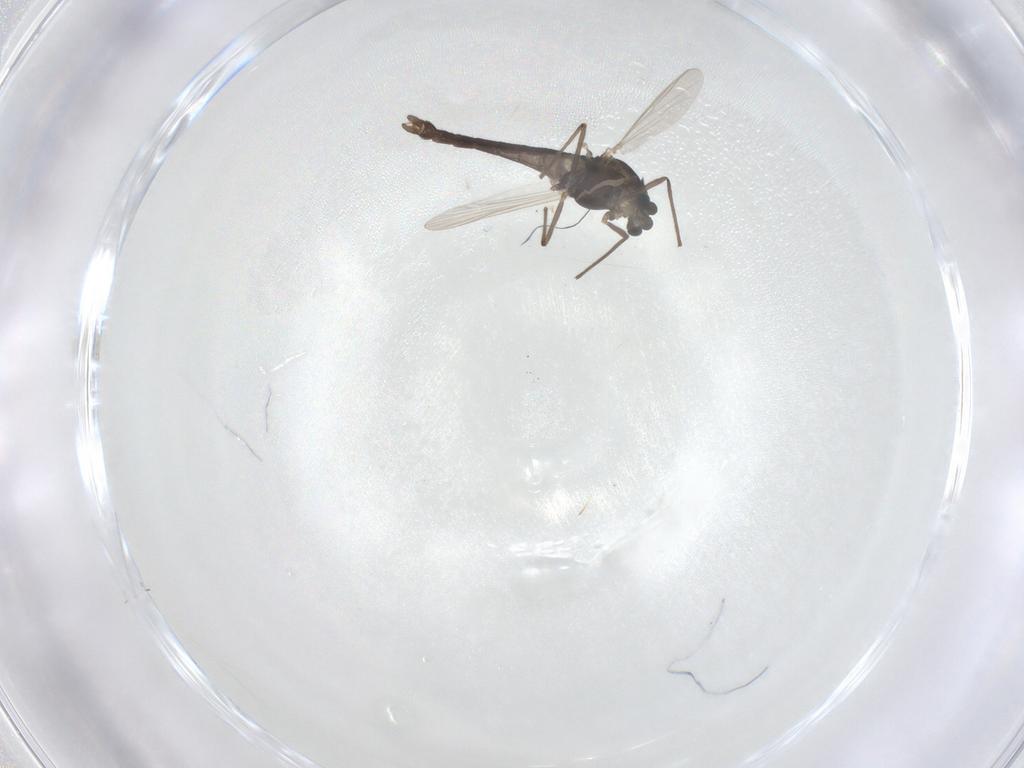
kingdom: Animalia
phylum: Arthropoda
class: Insecta
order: Diptera
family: Chironomidae
